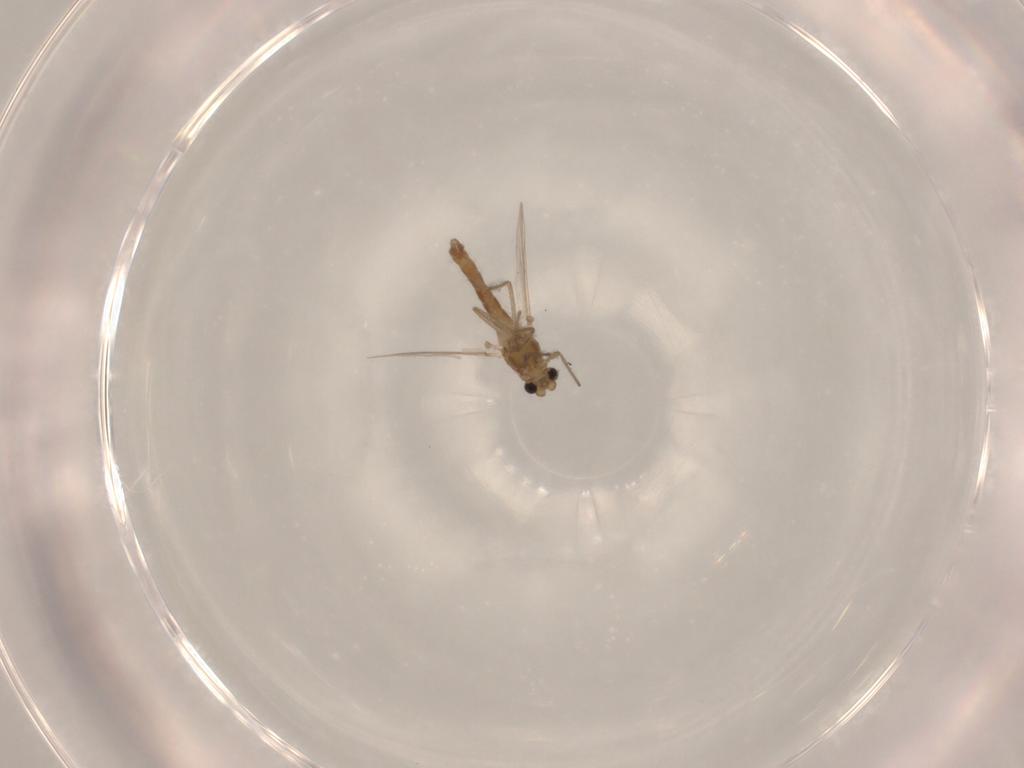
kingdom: Animalia
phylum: Arthropoda
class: Insecta
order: Diptera
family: Chironomidae
